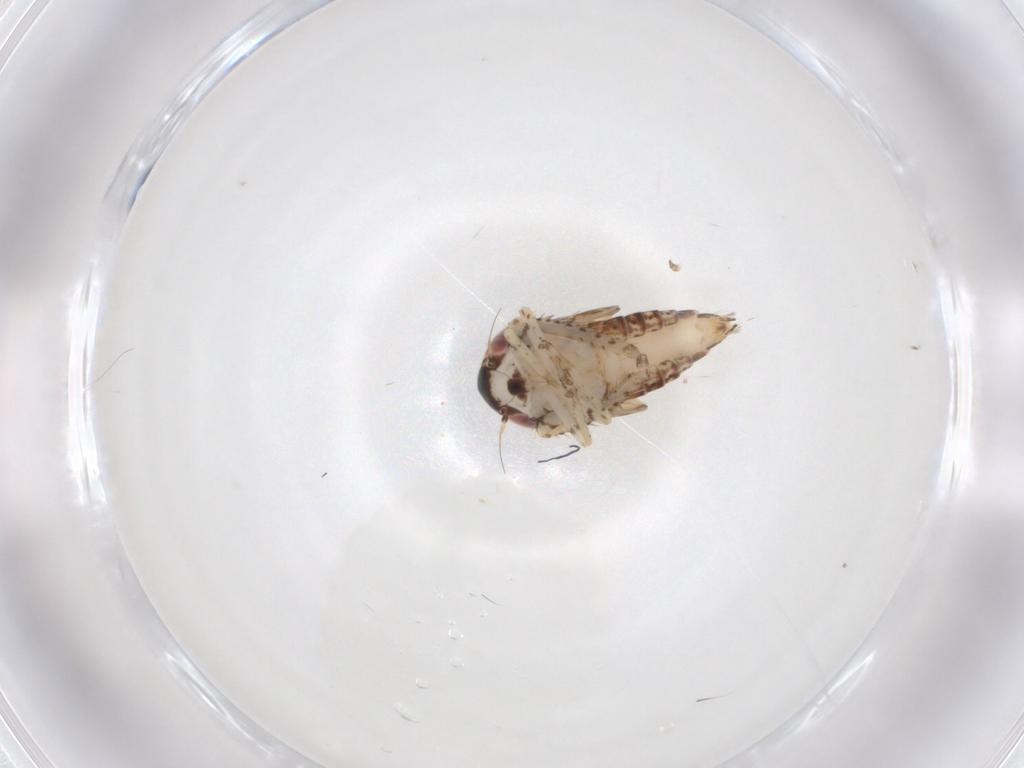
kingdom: Animalia
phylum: Arthropoda
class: Insecta
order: Hemiptera
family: Cicadellidae
